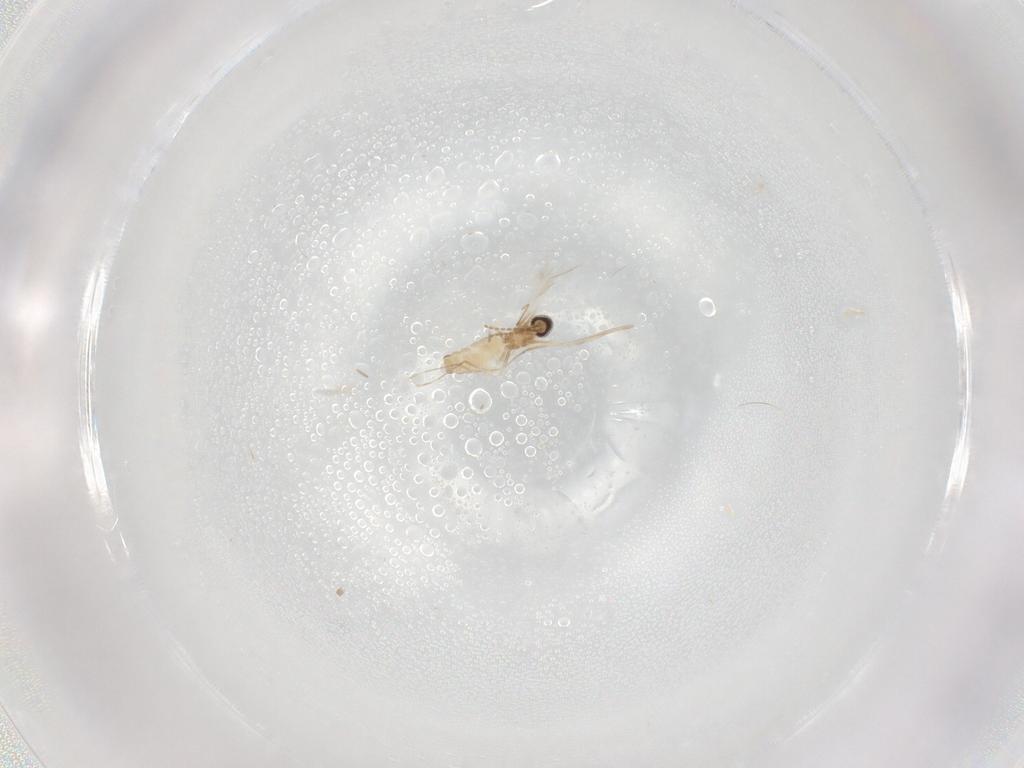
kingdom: Animalia
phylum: Arthropoda
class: Insecta
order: Diptera
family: Cecidomyiidae
